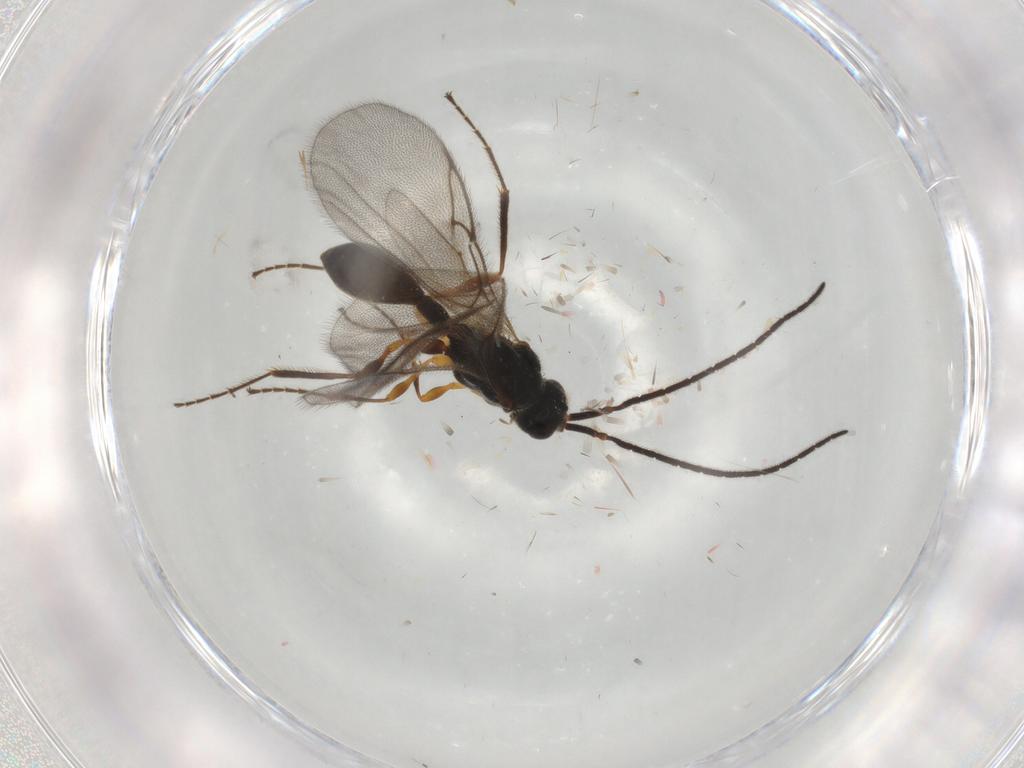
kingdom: Animalia
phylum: Arthropoda
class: Insecta
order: Hymenoptera
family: Diapriidae
